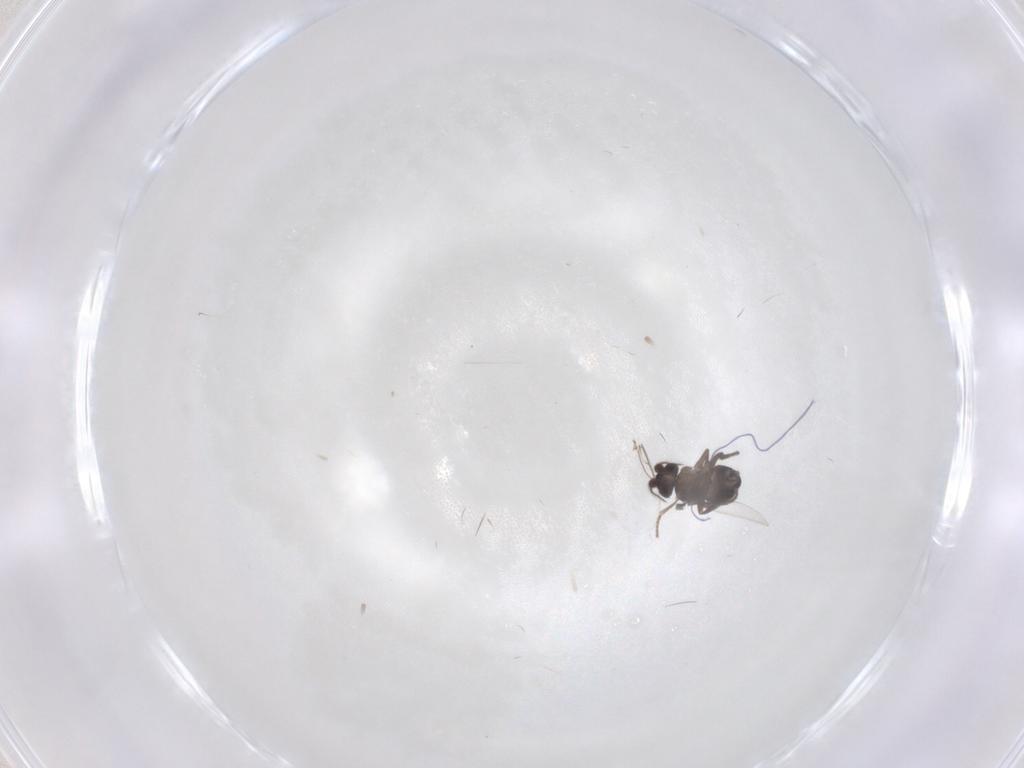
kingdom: Animalia
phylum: Arthropoda
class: Insecta
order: Diptera
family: Phoridae
